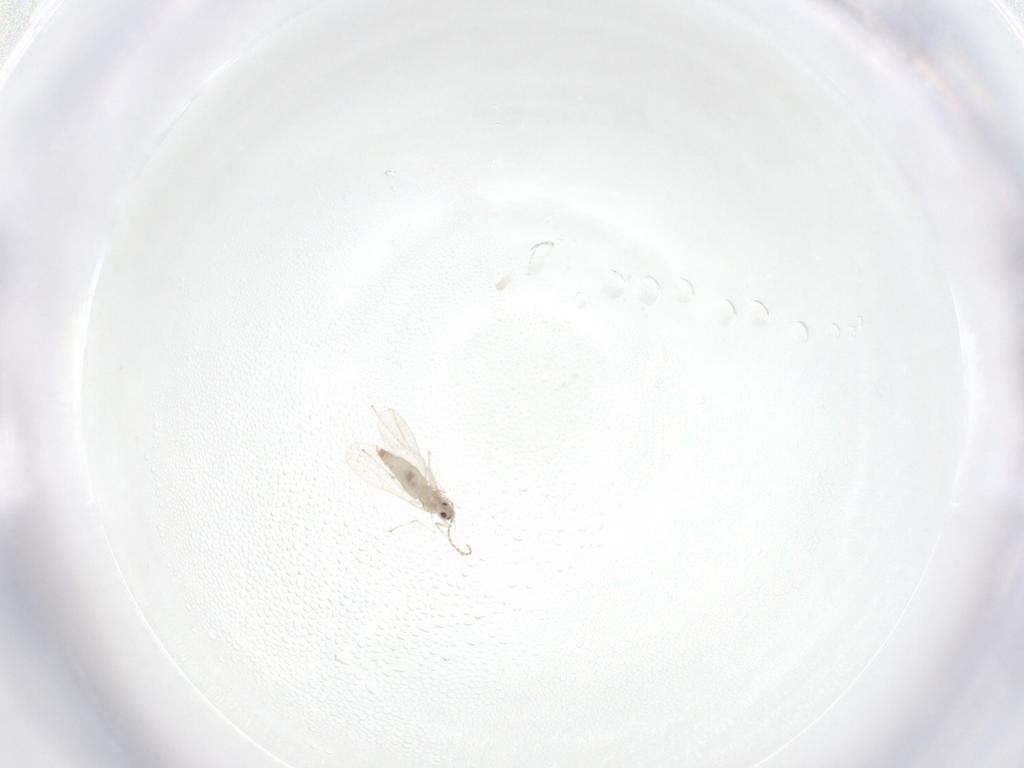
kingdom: Animalia
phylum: Arthropoda
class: Insecta
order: Diptera
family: Cecidomyiidae
